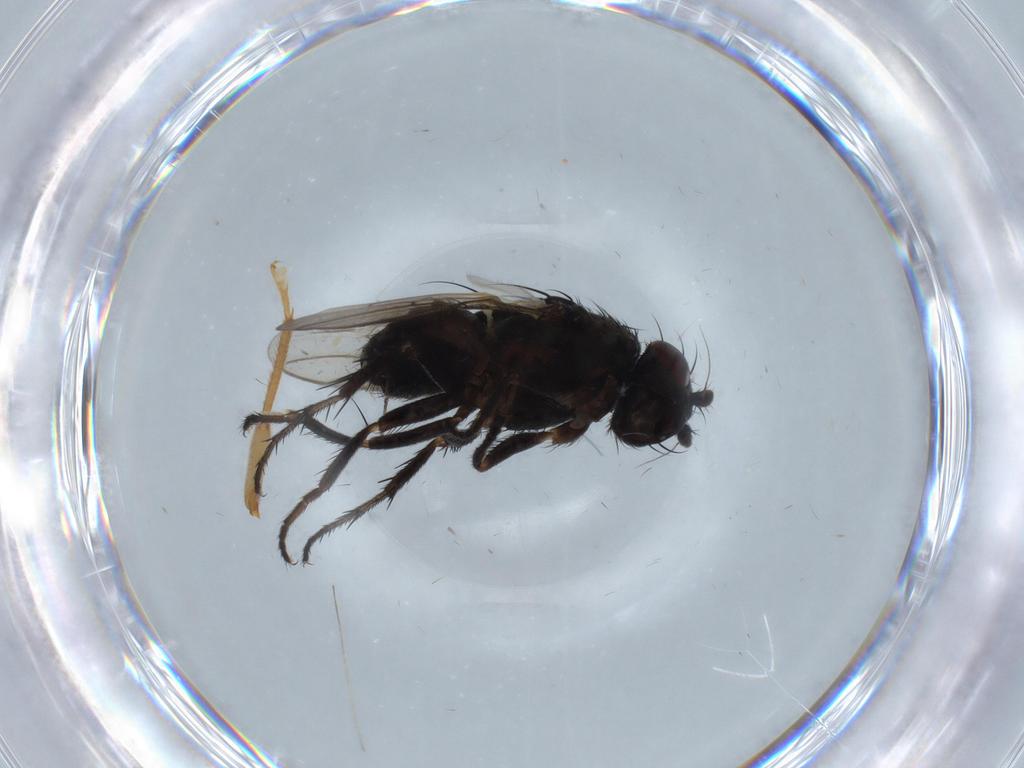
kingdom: Animalia
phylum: Arthropoda
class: Insecta
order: Diptera
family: Sphaeroceridae
